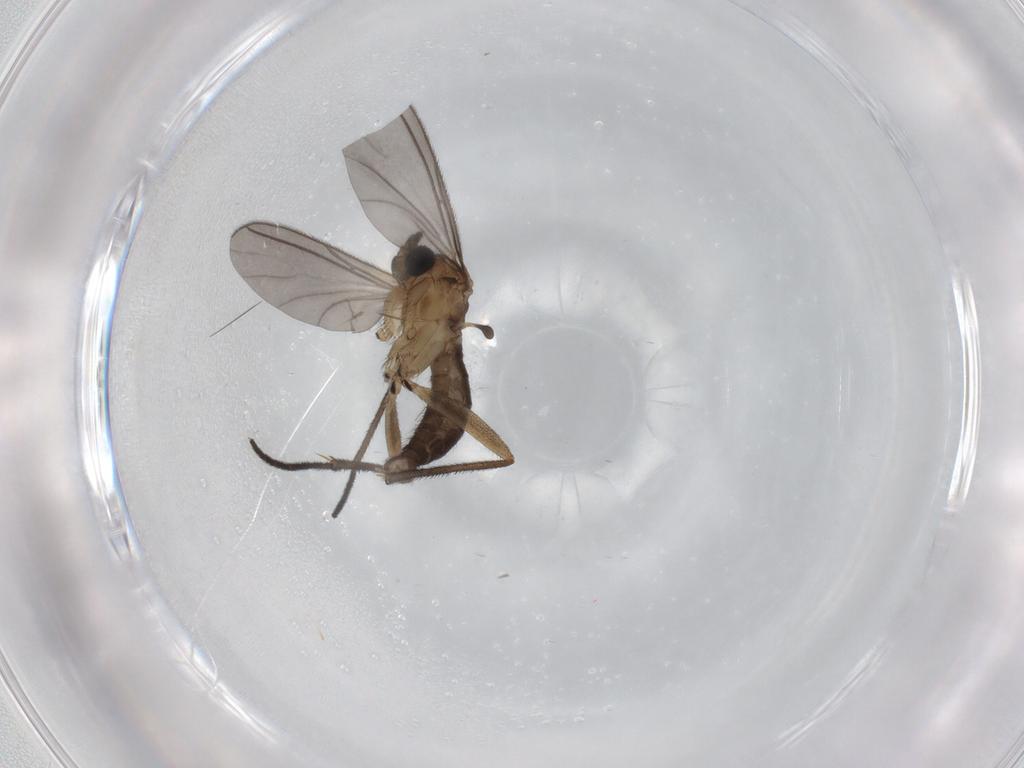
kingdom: Animalia
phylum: Arthropoda
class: Insecta
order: Diptera
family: Sciaridae
